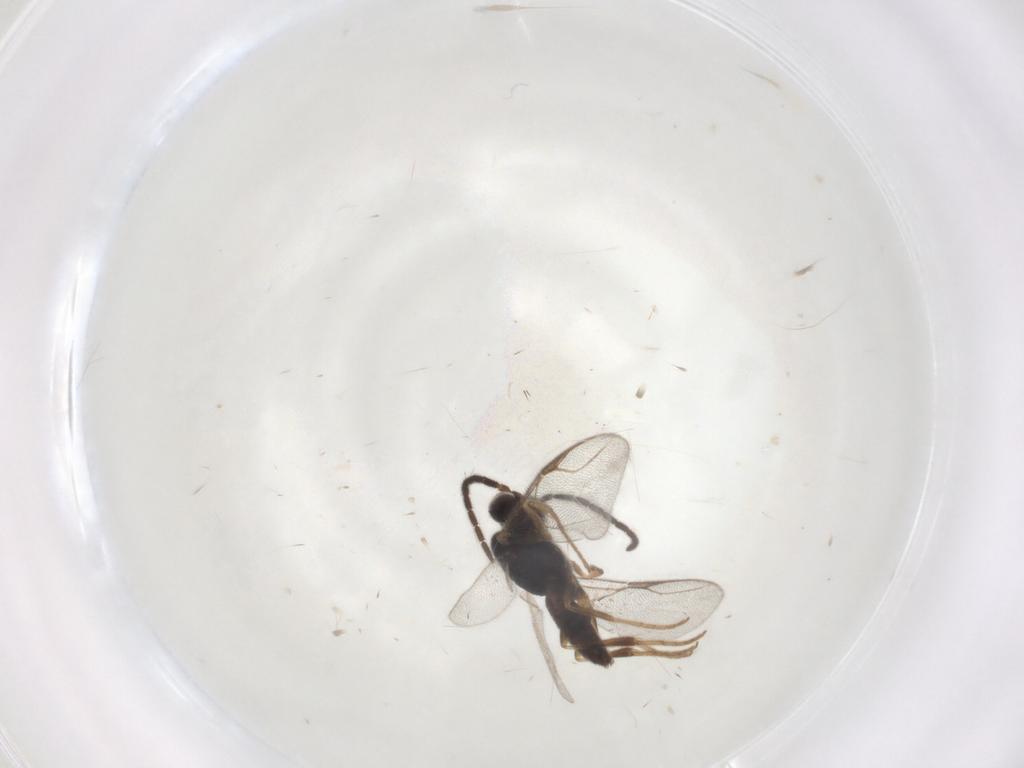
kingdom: Animalia
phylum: Arthropoda
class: Insecta
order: Hymenoptera
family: Dryinidae
